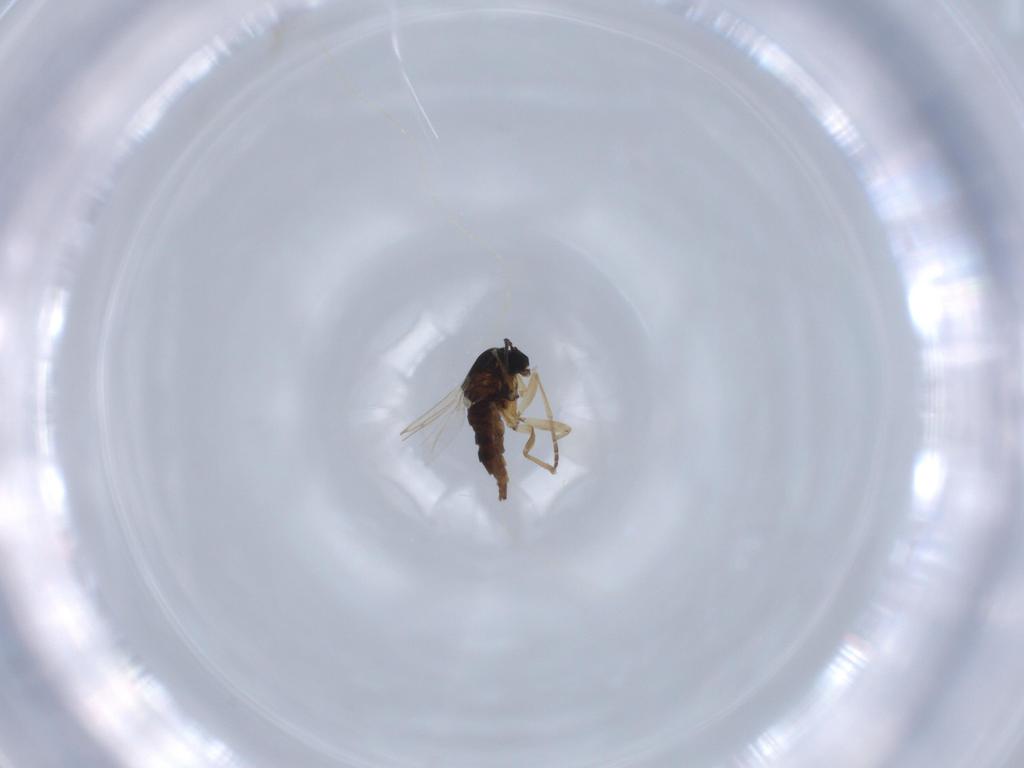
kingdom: Animalia
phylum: Arthropoda
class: Insecta
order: Diptera
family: Sciaridae
